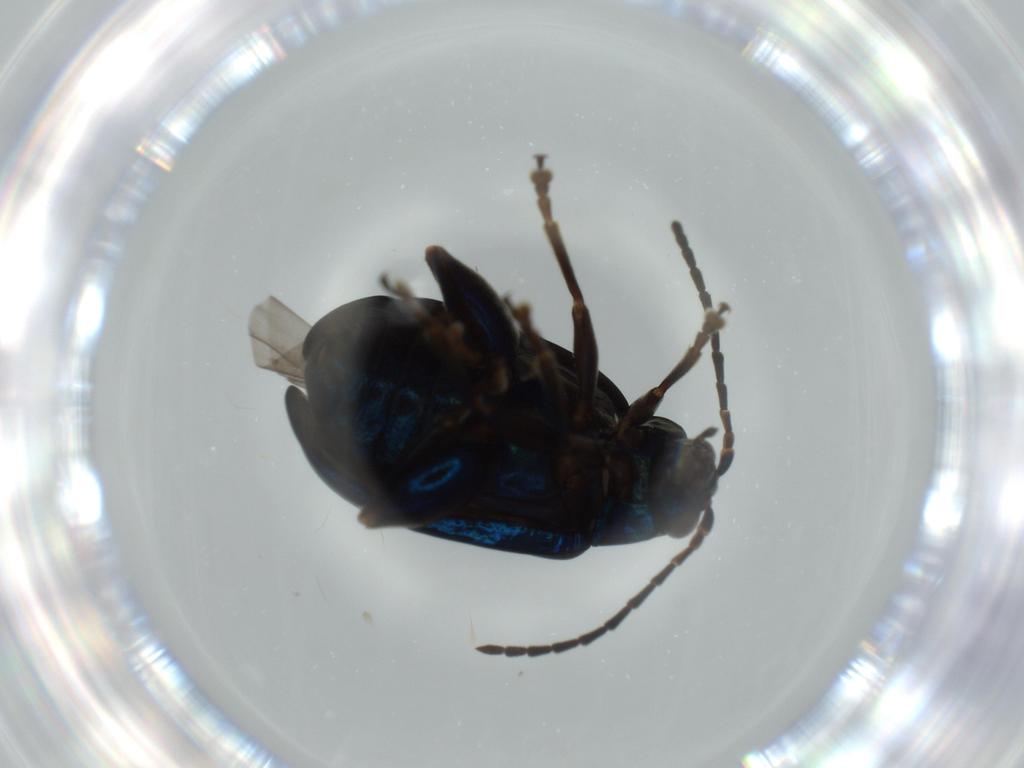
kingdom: Animalia
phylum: Arthropoda
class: Insecta
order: Coleoptera
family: Chrysomelidae
